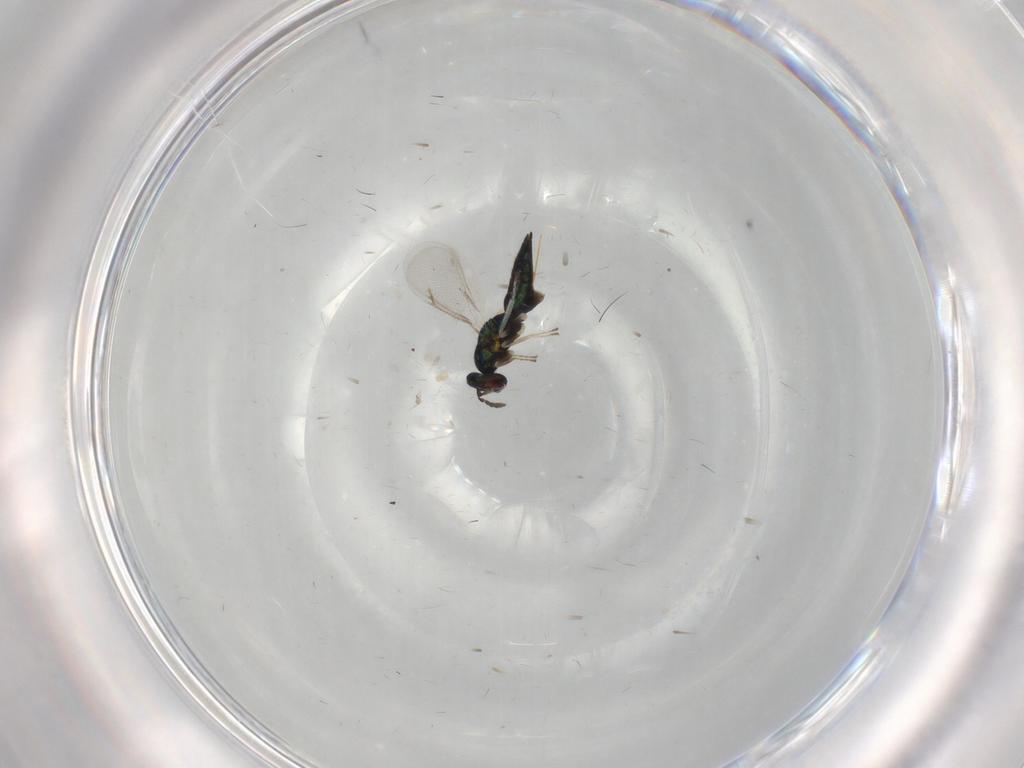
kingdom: Animalia
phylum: Arthropoda
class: Insecta
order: Hymenoptera
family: Eulophidae
